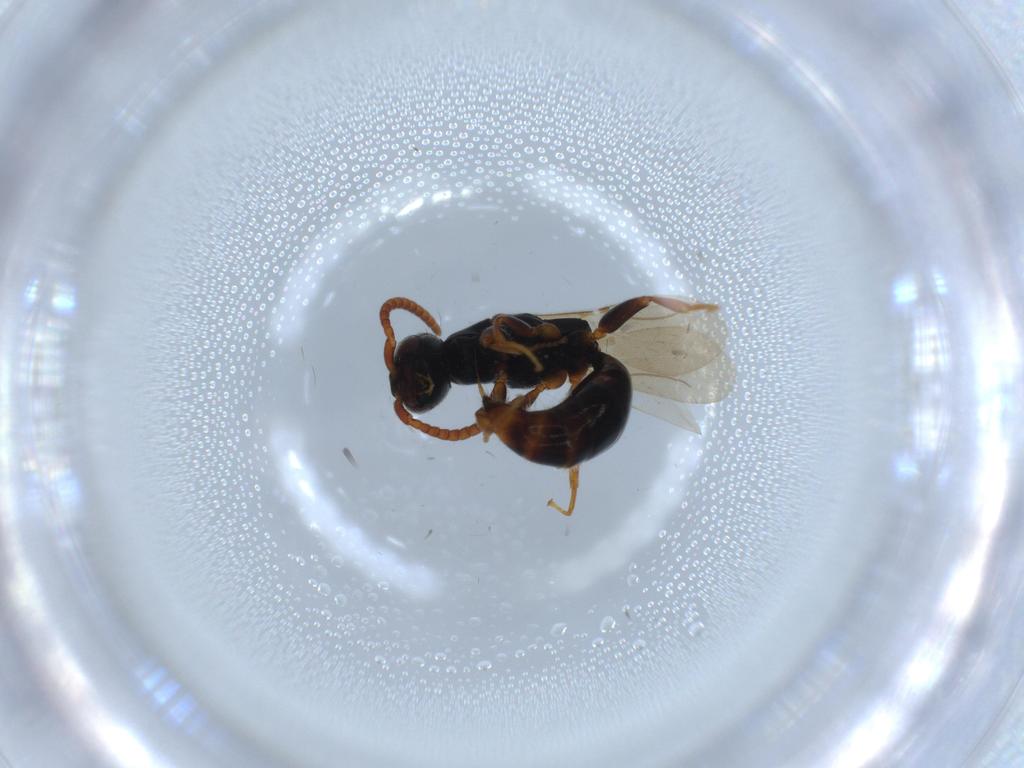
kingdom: Animalia
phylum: Arthropoda
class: Insecta
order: Hymenoptera
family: Bethylidae
